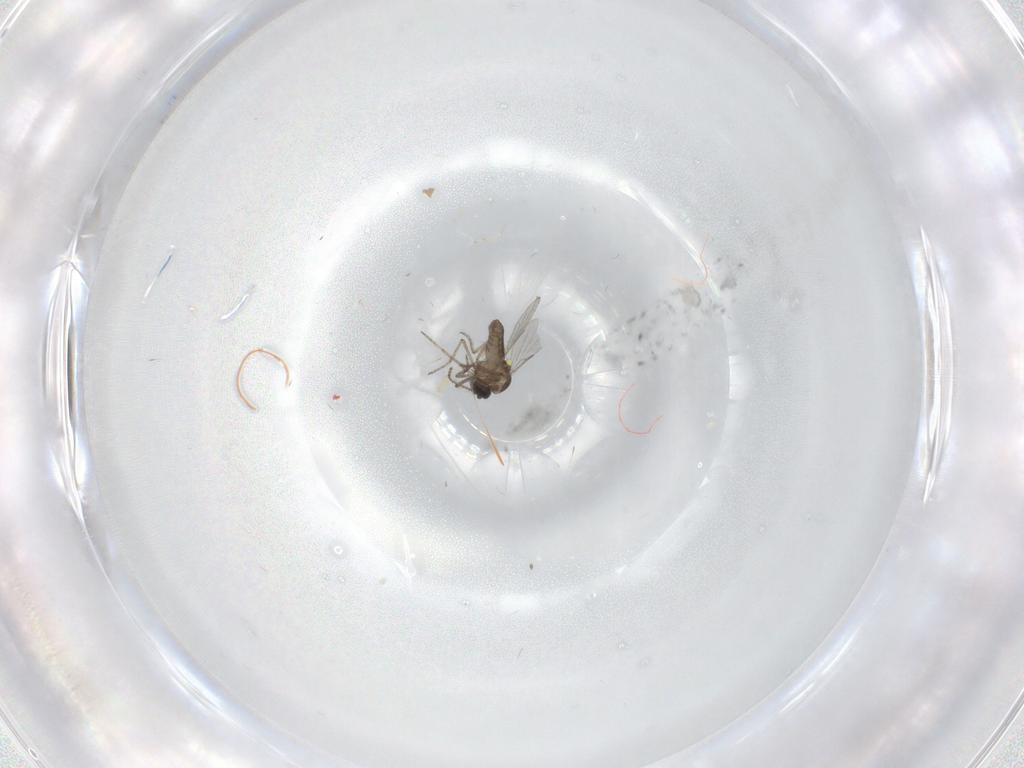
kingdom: Animalia
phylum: Arthropoda
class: Insecta
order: Diptera
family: Ceratopogonidae
